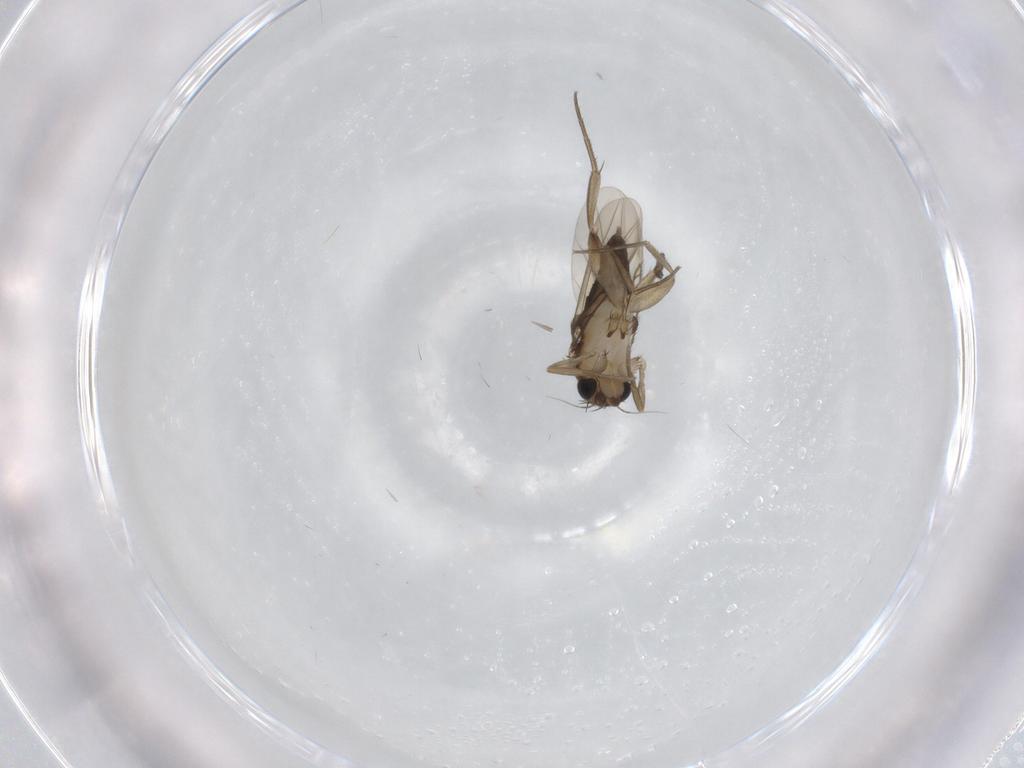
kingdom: Animalia
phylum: Arthropoda
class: Insecta
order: Diptera
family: Phoridae
